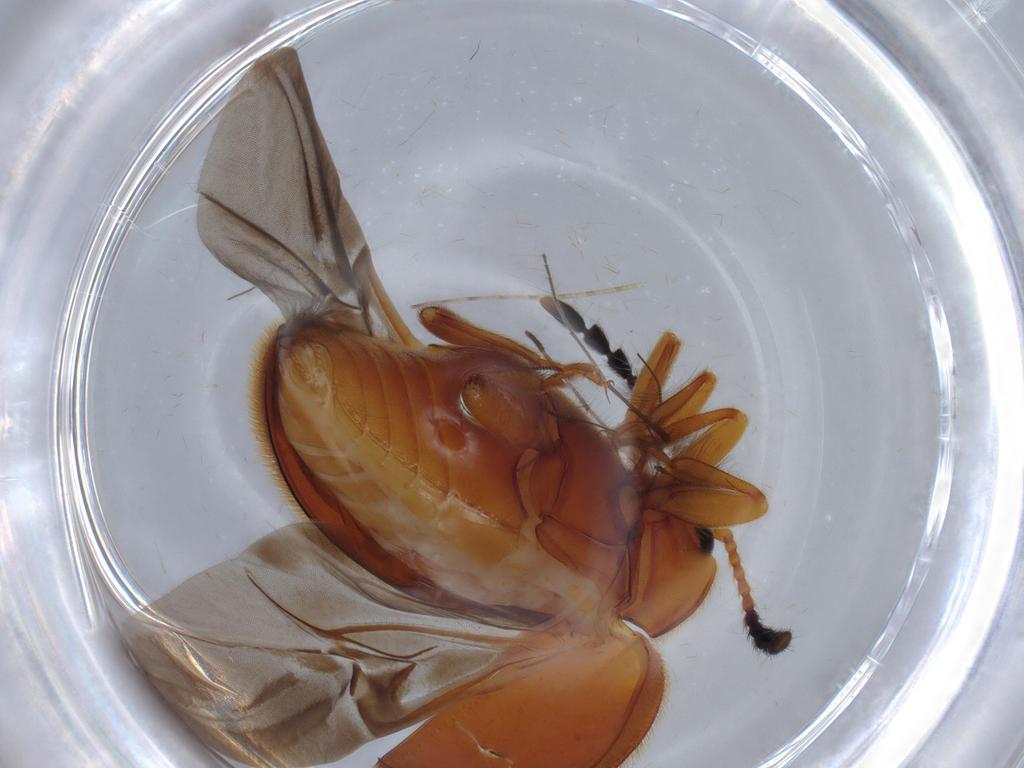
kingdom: Animalia
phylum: Arthropoda
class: Insecta
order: Coleoptera
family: Endomychidae
